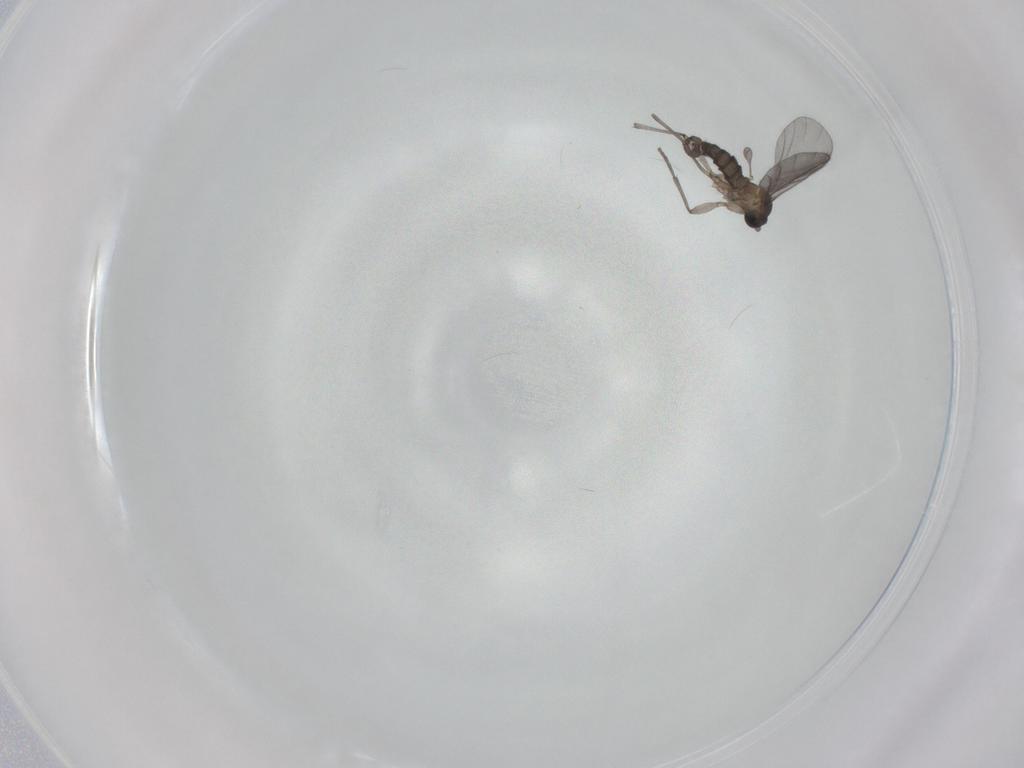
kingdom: Animalia
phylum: Arthropoda
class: Insecta
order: Diptera
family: Sciaridae
